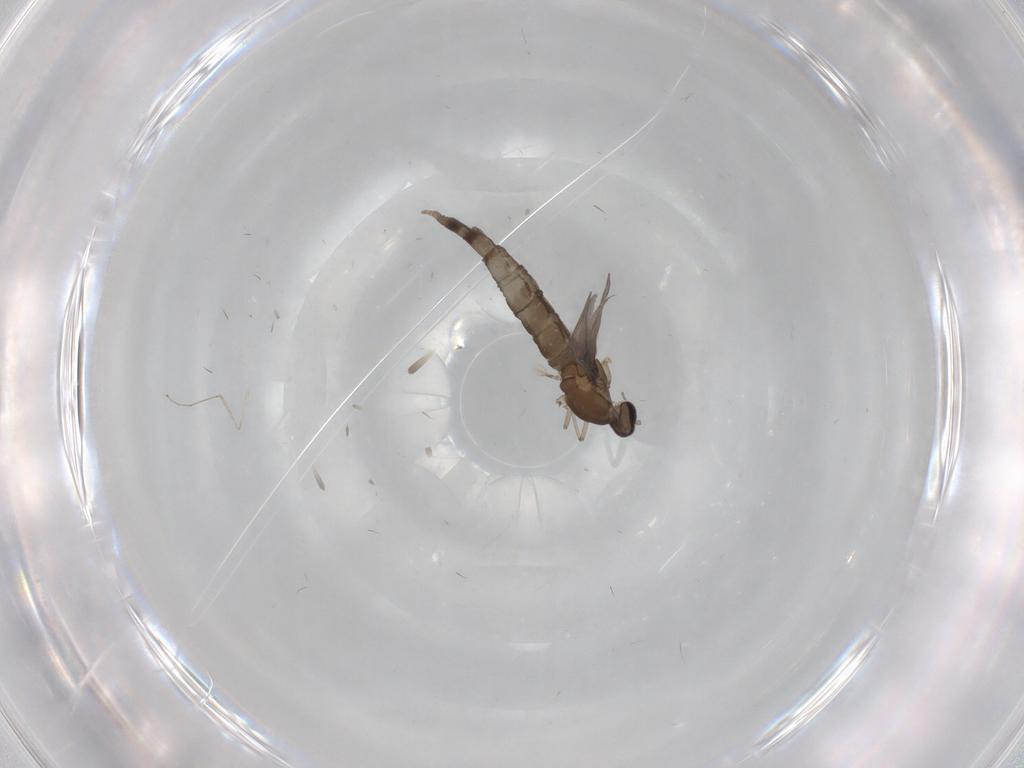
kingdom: Animalia
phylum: Arthropoda
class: Insecta
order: Diptera
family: Cecidomyiidae
